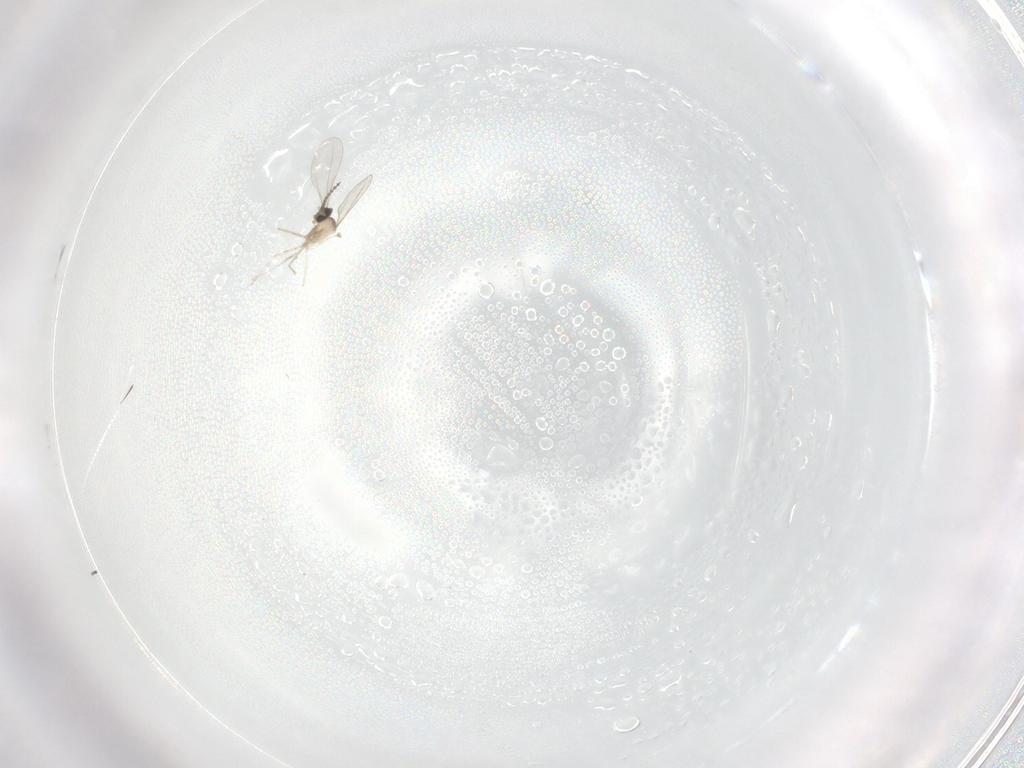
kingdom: Animalia
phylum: Arthropoda
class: Insecta
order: Diptera
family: Cecidomyiidae
